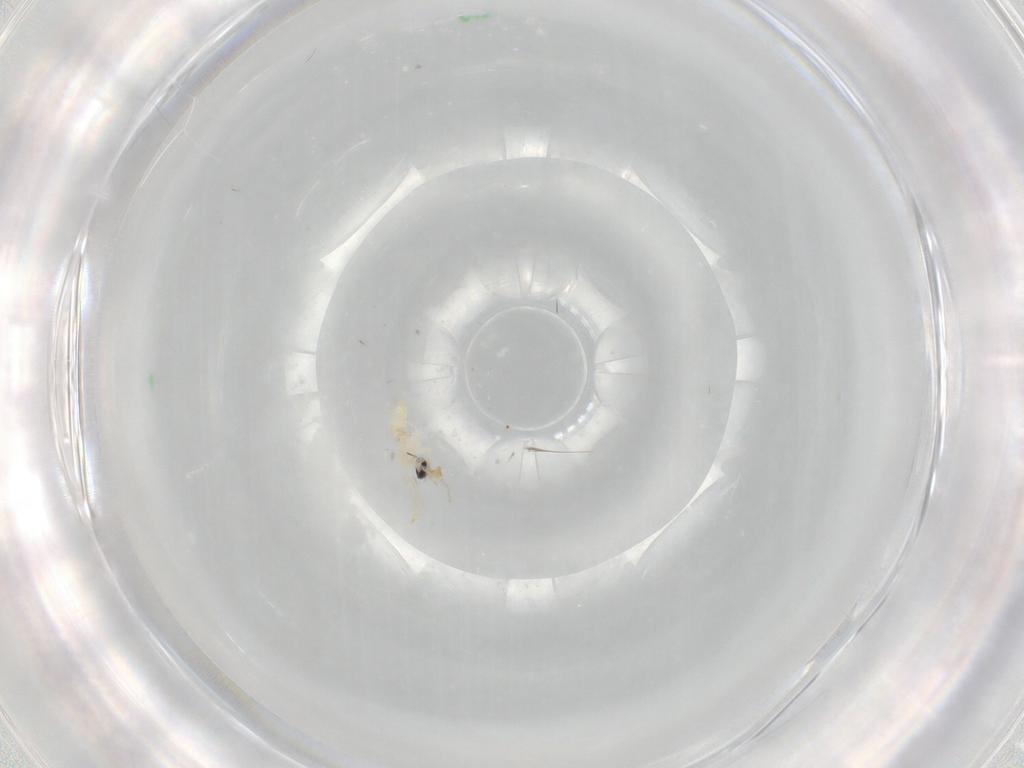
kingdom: Animalia
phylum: Arthropoda
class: Insecta
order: Diptera
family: Cecidomyiidae
